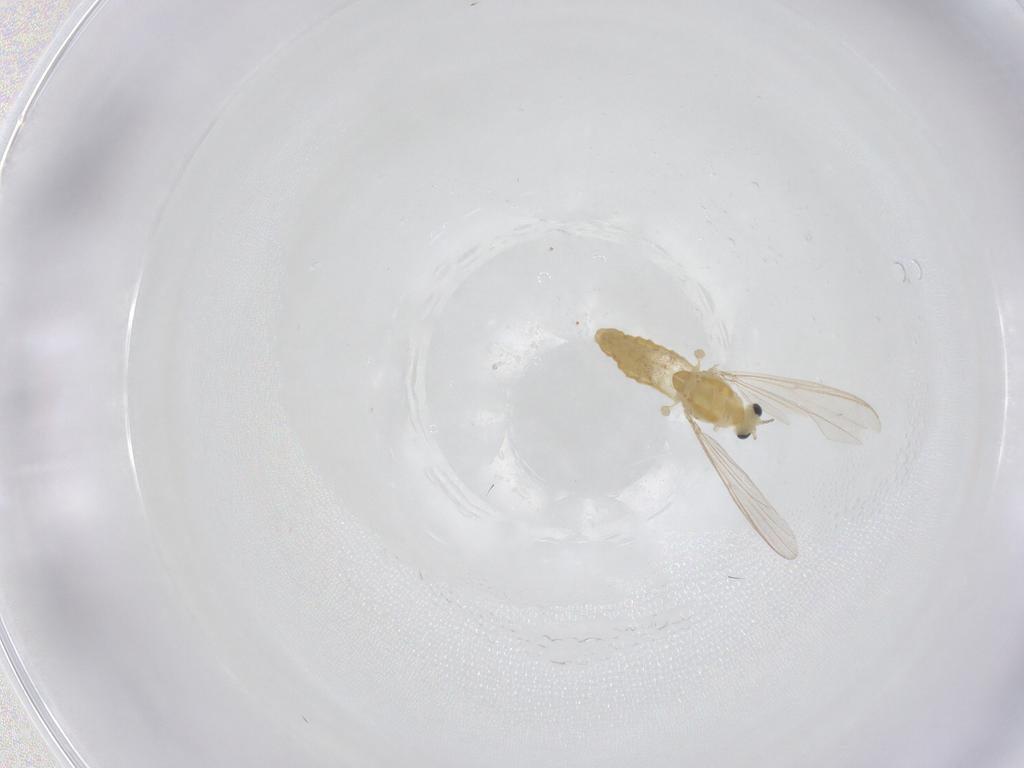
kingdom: Animalia
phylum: Arthropoda
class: Insecta
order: Diptera
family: Chironomidae
